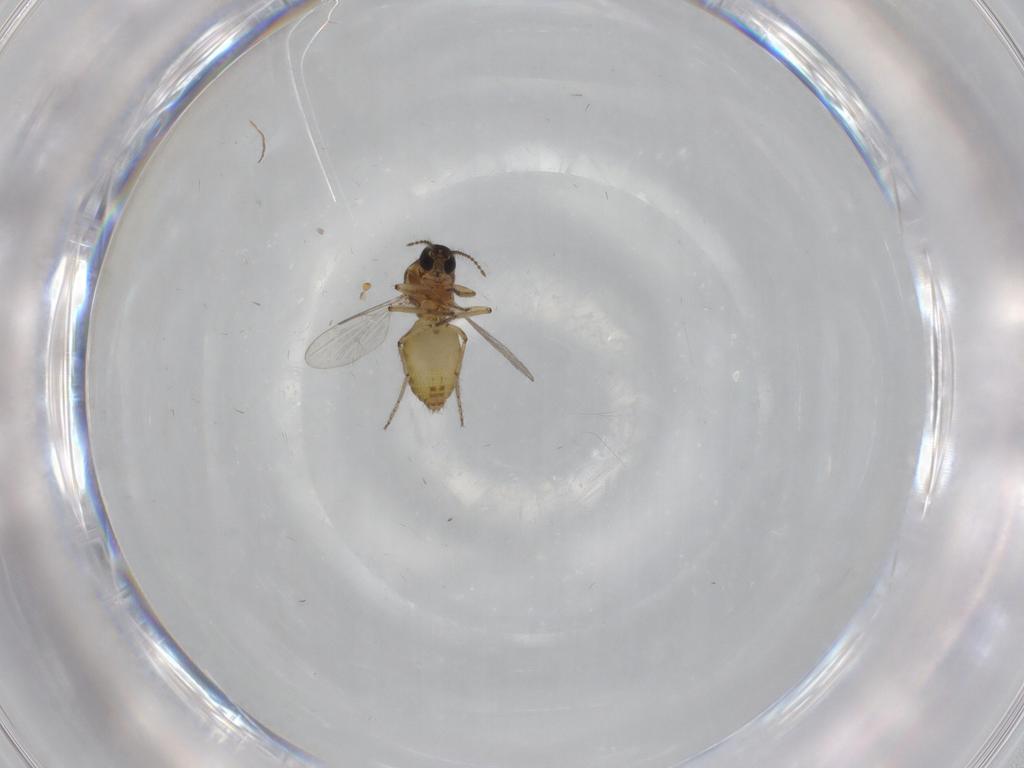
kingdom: Animalia
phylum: Arthropoda
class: Insecta
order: Diptera
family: Ceratopogonidae
